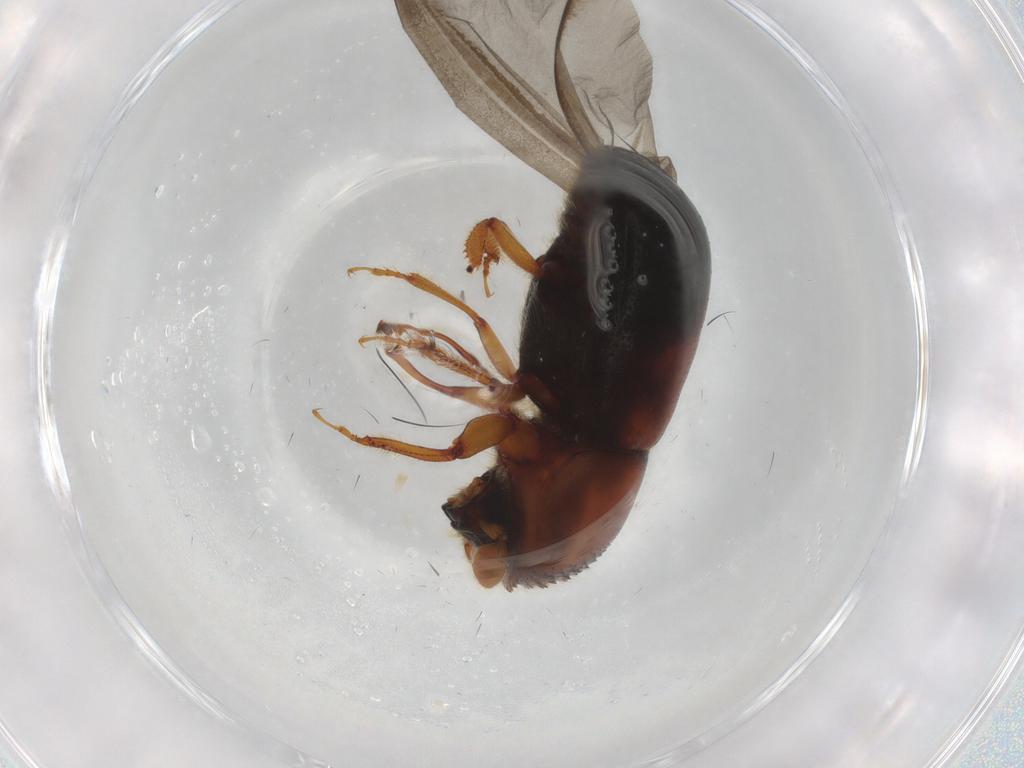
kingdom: Animalia
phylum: Arthropoda
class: Insecta
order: Coleoptera
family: Curculionidae
